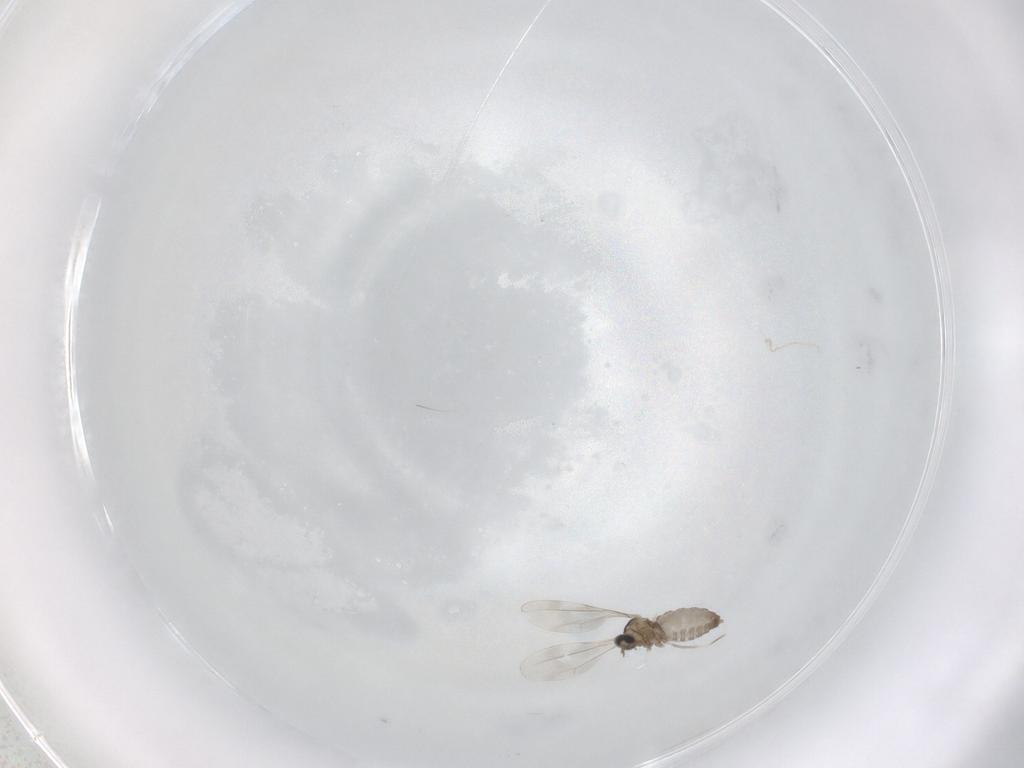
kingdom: Animalia
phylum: Arthropoda
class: Insecta
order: Diptera
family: Cecidomyiidae
